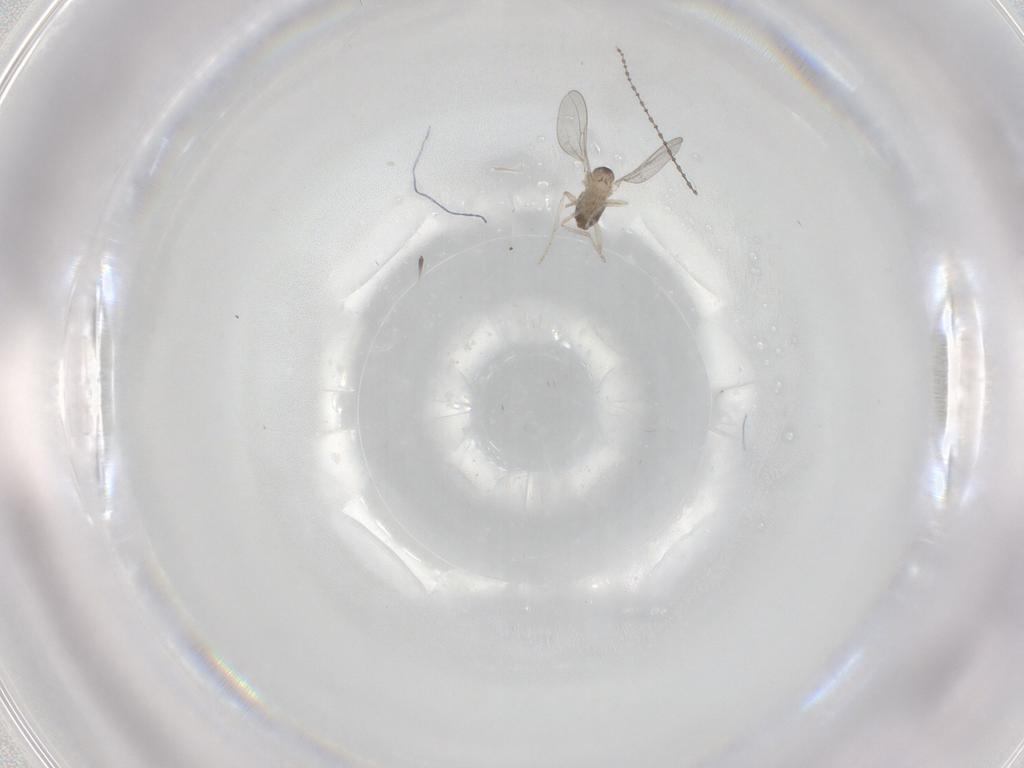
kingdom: Animalia
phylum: Arthropoda
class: Insecta
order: Diptera
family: Cecidomyiidae
